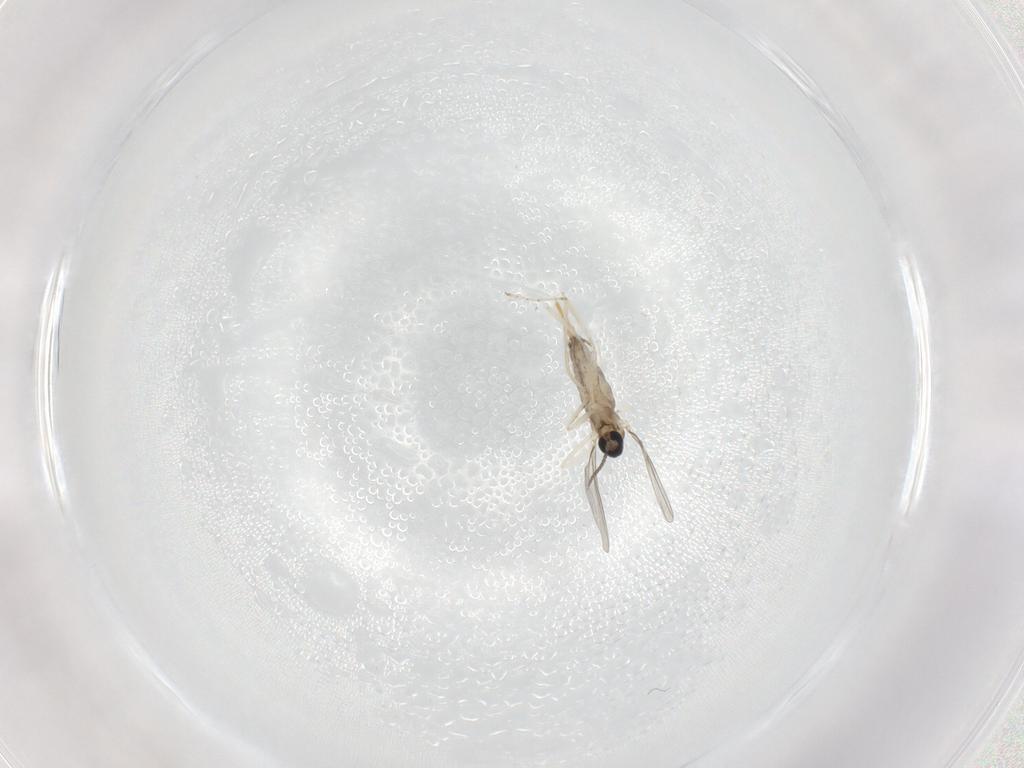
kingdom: Animalia
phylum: Arthropoda
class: Insecta
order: Diptera
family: Cecidomyiidae
